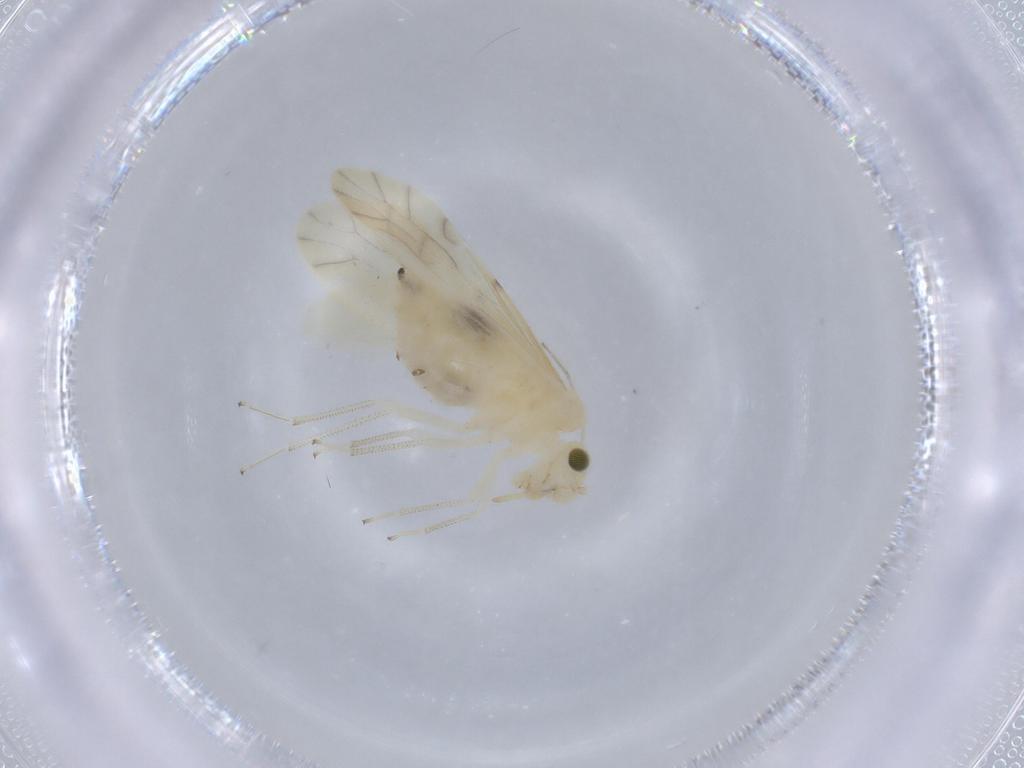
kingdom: Animalia
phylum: Arthropoda
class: Insecta
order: Psocodea
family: Caeciliusidae
